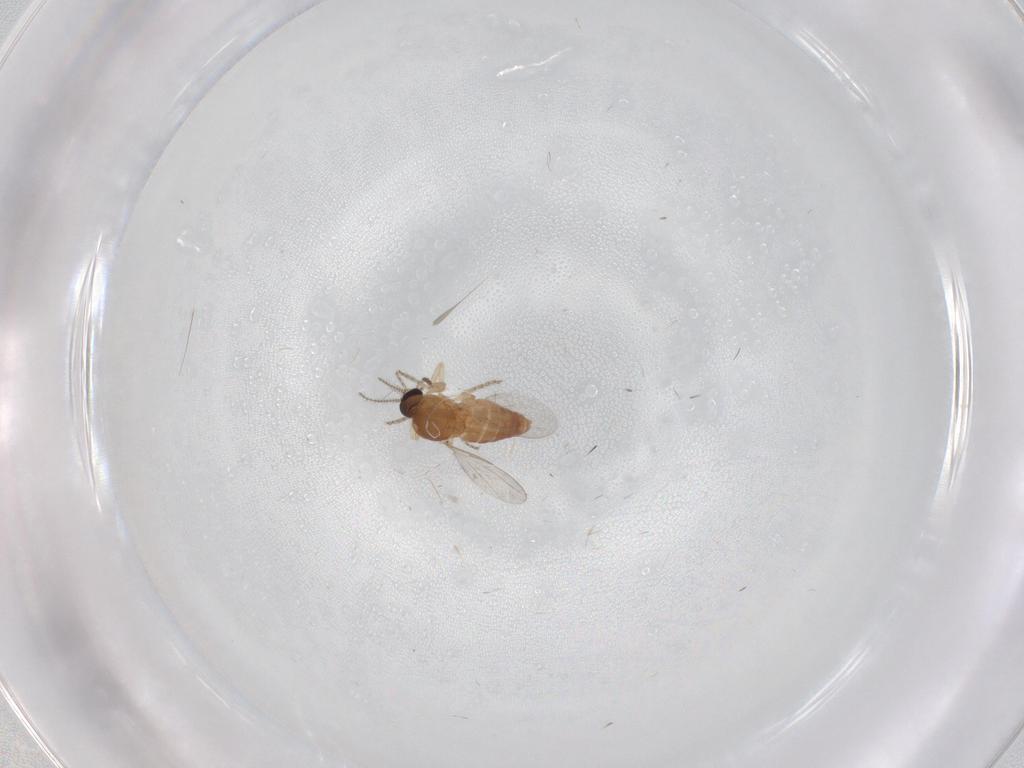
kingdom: Animalia
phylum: Arthropoda
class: Insecta
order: Diptera
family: Ceratopogonidae
